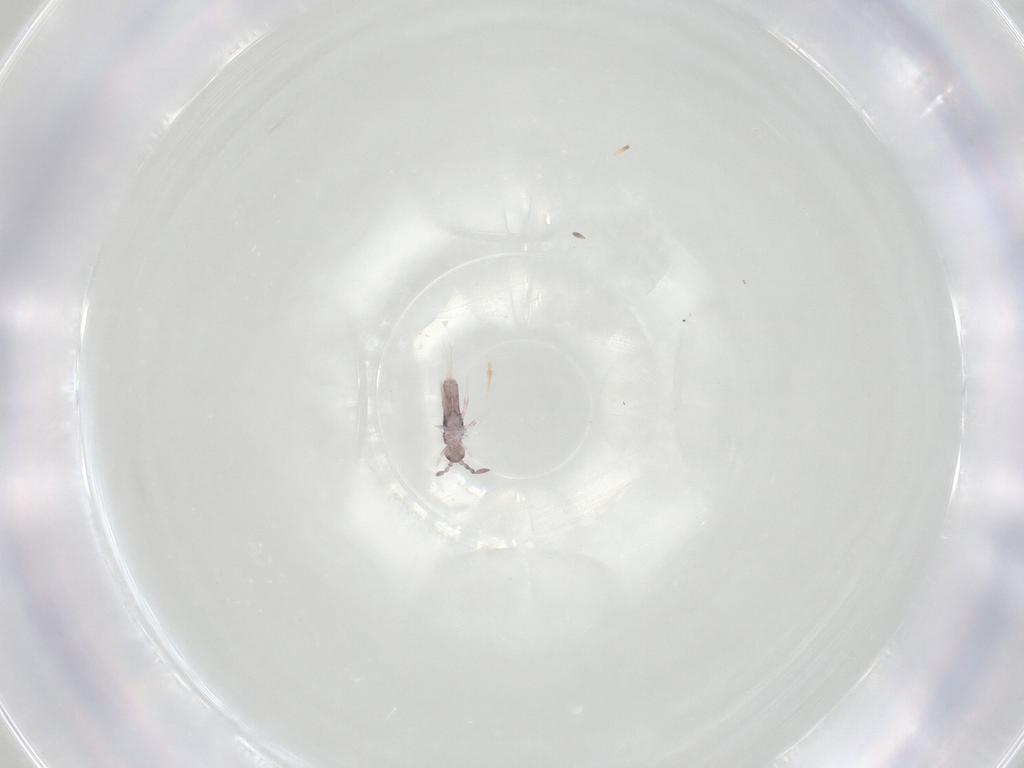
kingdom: Animalia
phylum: Arthropoda
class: Collembola
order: Entomobryomorpha
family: Entomobryidae
